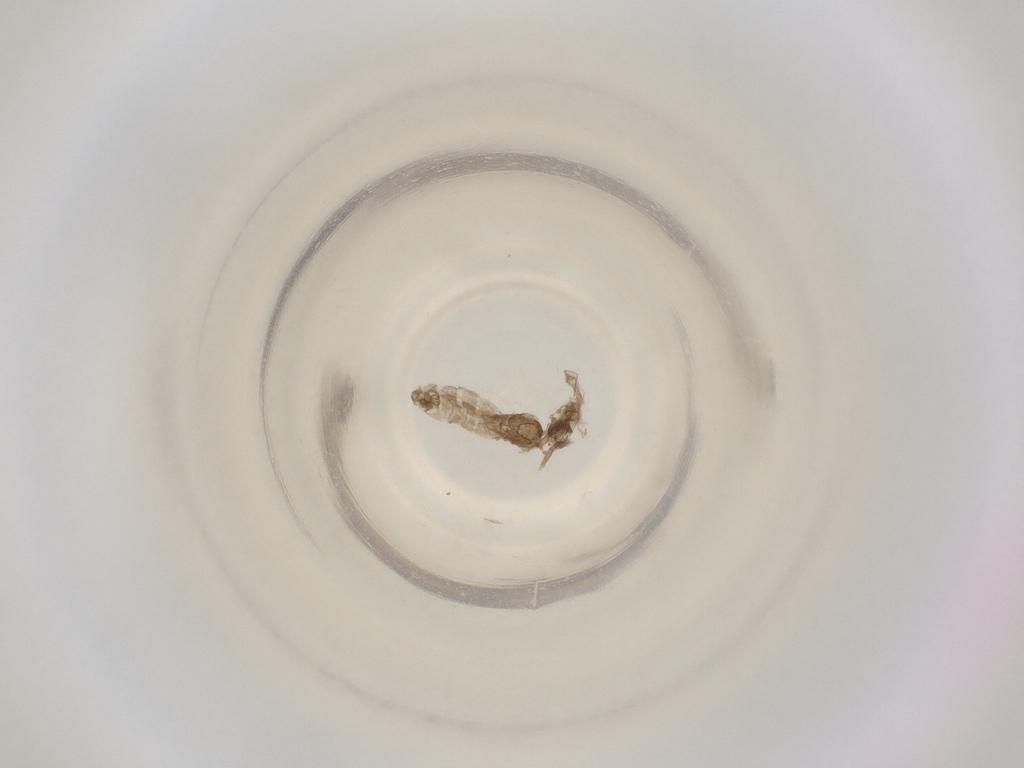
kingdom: Animalia
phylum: Arthropoda
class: Insecta
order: Diptera
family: Cecidomyiidae
